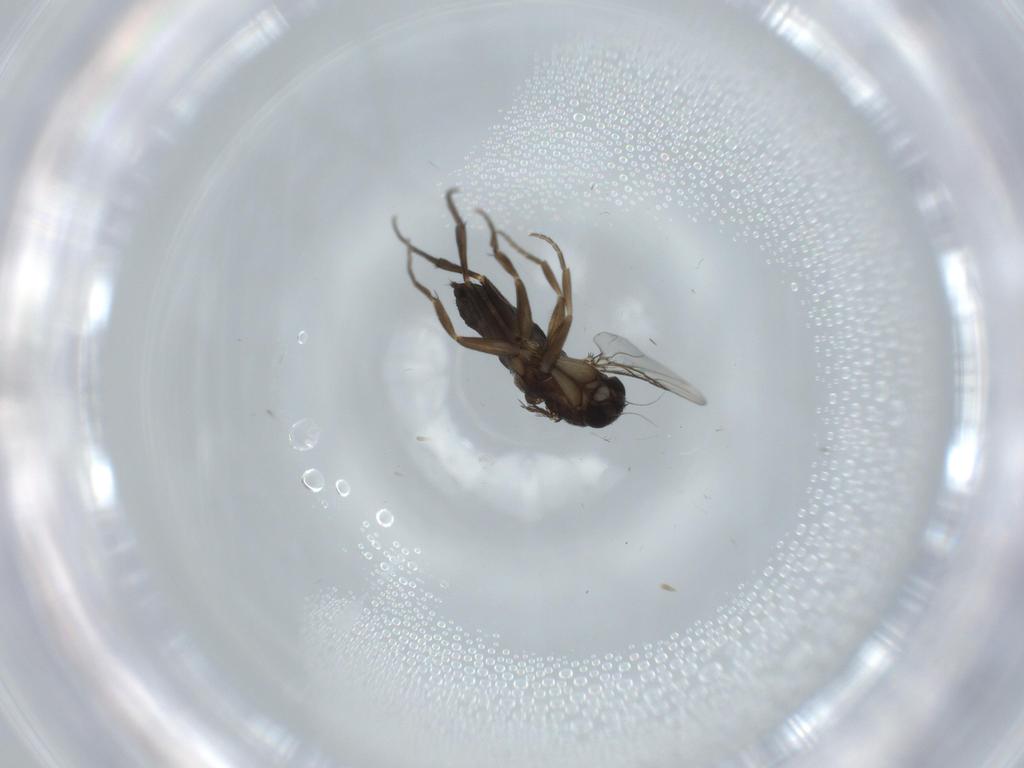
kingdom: Animalia
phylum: Arthropoda
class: Insecta
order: Diptera
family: Phoridae
